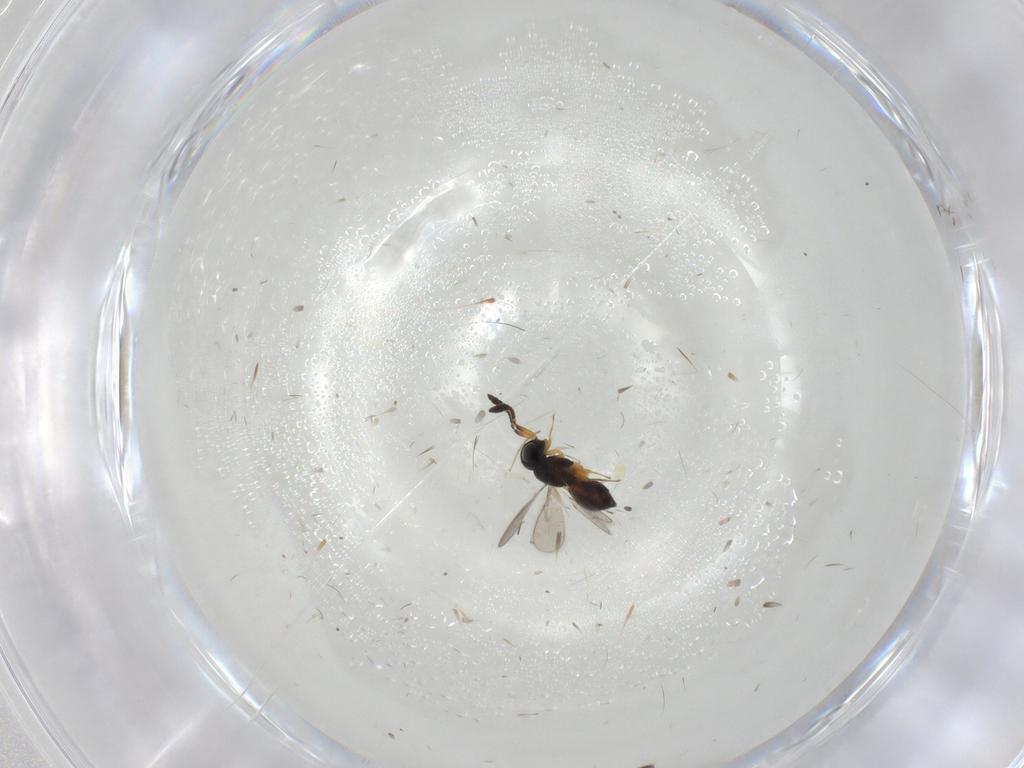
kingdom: Animalia
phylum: Arthropoda
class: Insecta
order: Hymenoptera
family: Scelionidae
